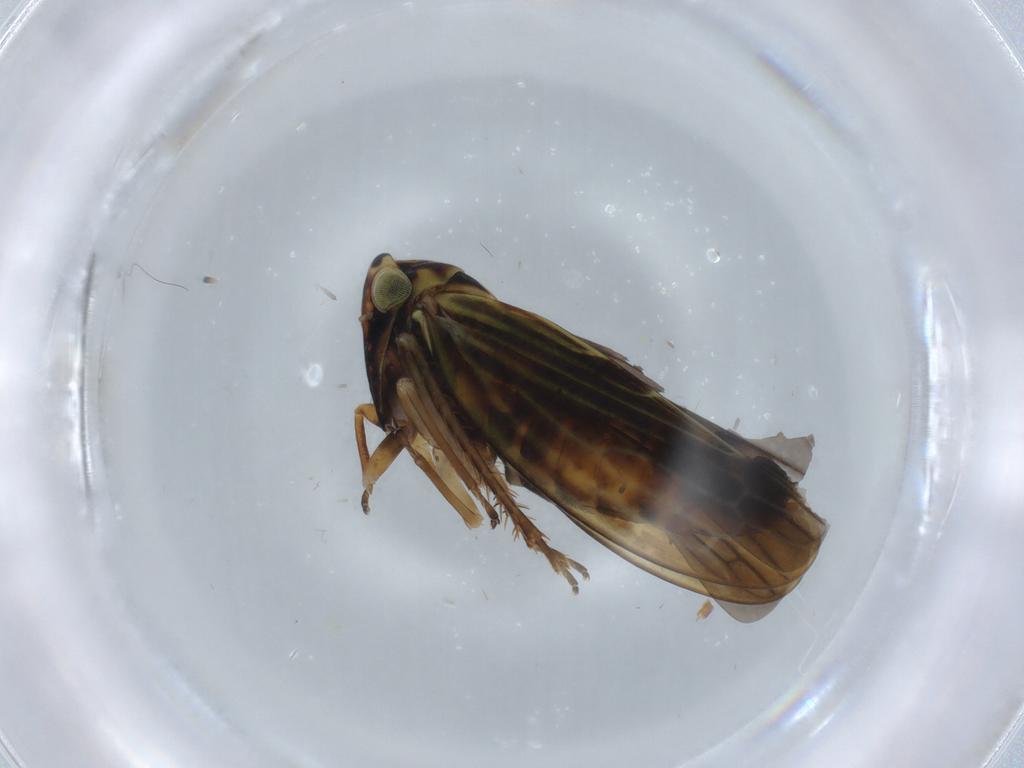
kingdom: Animalia
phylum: Arthropoda
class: Insecta
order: Hemiptera
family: Cicadellidae
